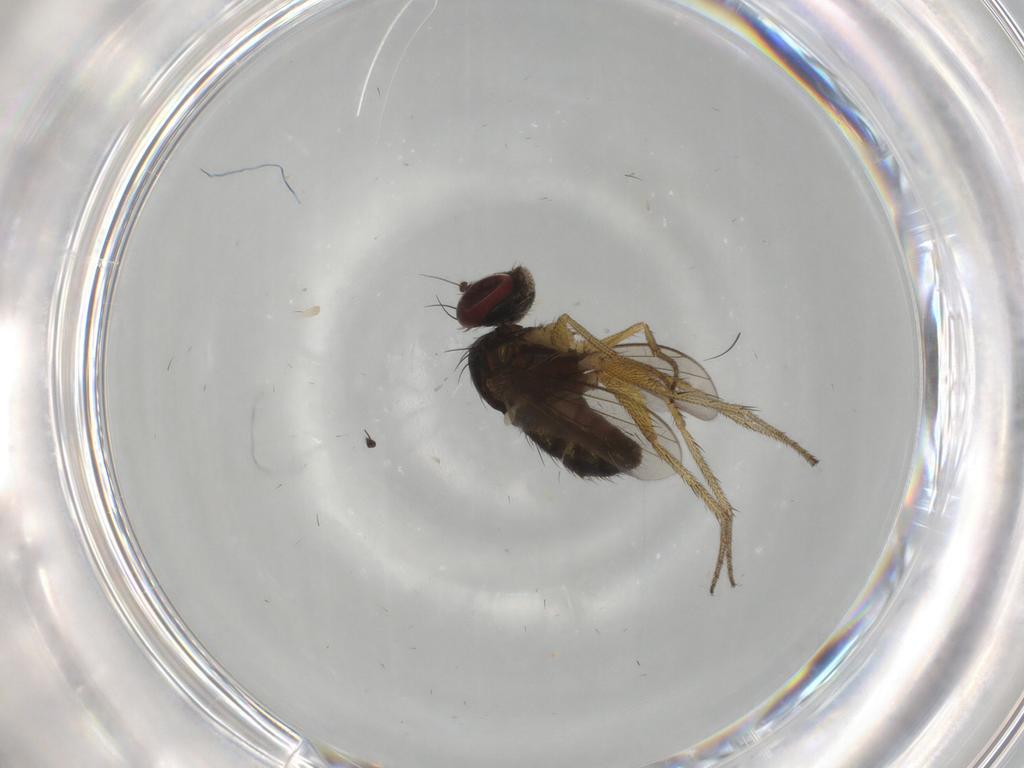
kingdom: Animalia
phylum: Arthropoda
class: Insecta
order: Diptera
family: Dolichopodidae
